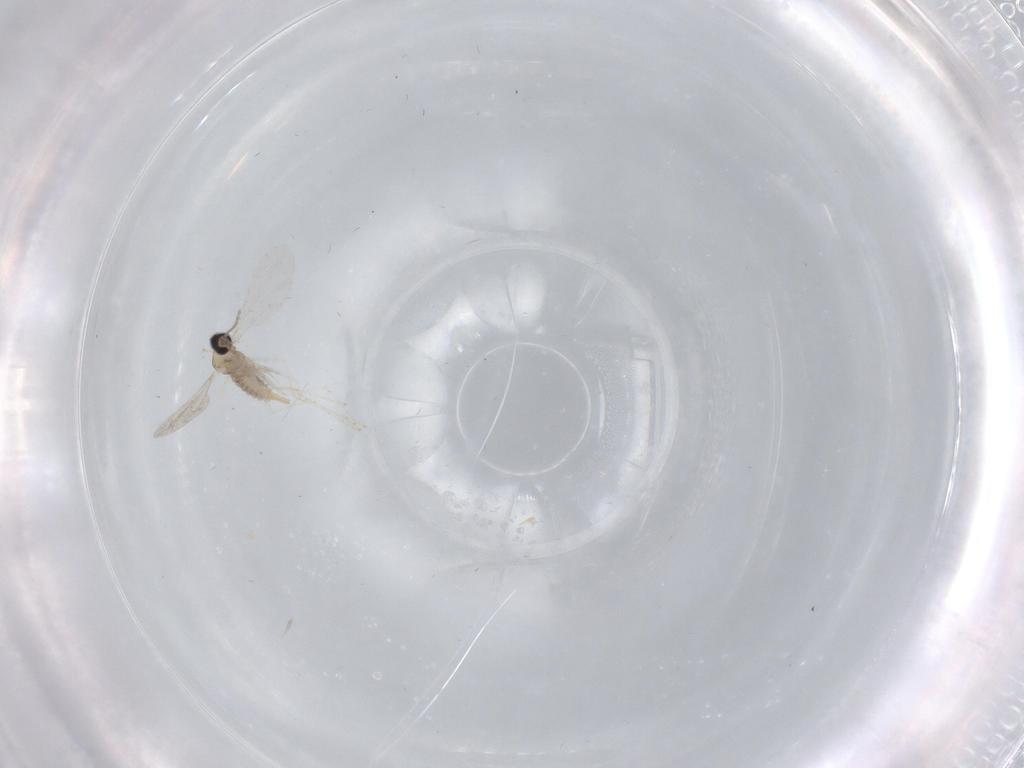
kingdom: Animalia
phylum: Arthropoda
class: Insecta
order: Diptera
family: Cecidomyiidae
